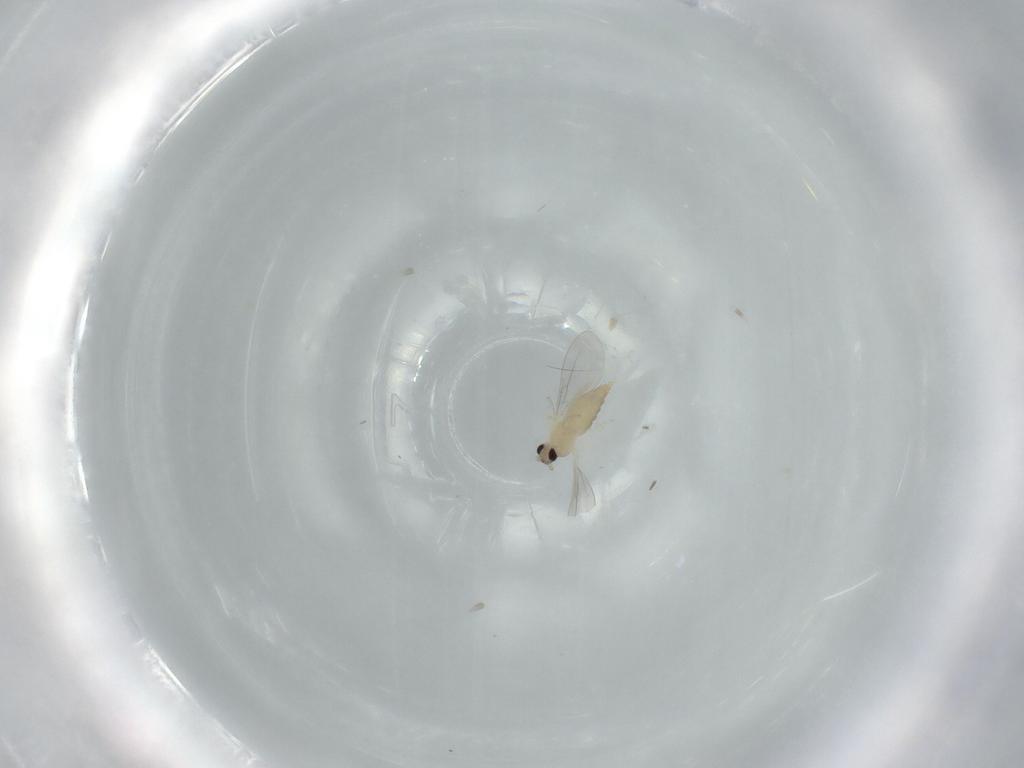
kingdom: Animalia
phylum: Arthropoda
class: Insecta
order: Diptera
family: Cecidomyiidae
